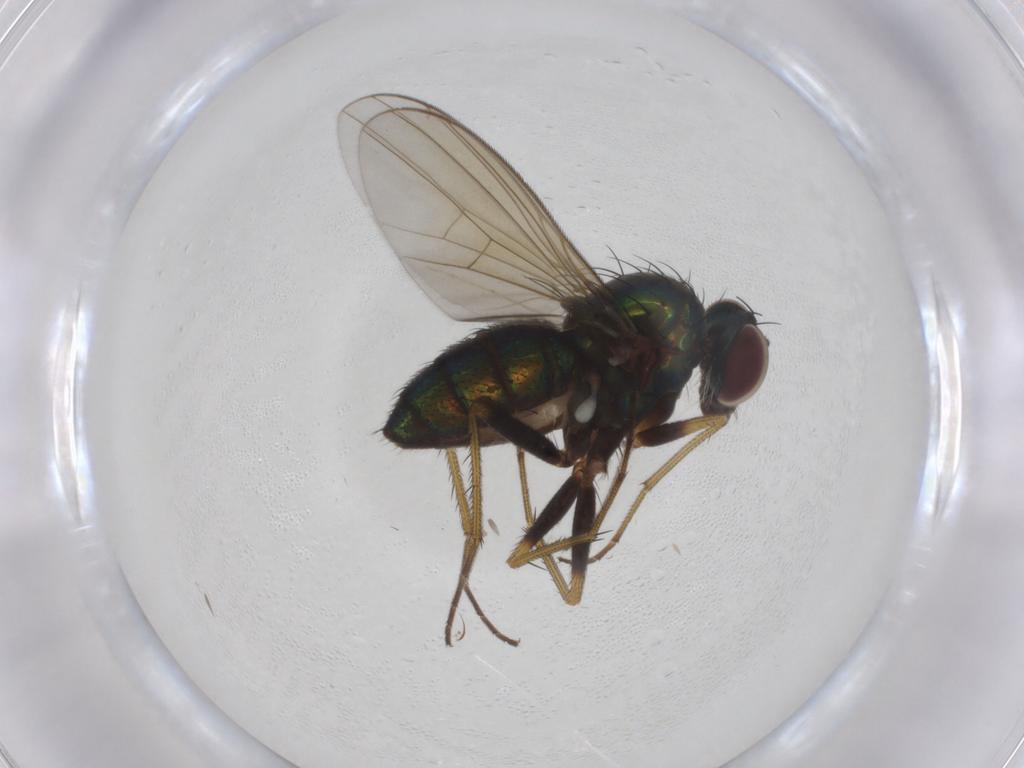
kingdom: Animalia
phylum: Arthropoda
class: Insecta
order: Diptera
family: Dolichopodidae
